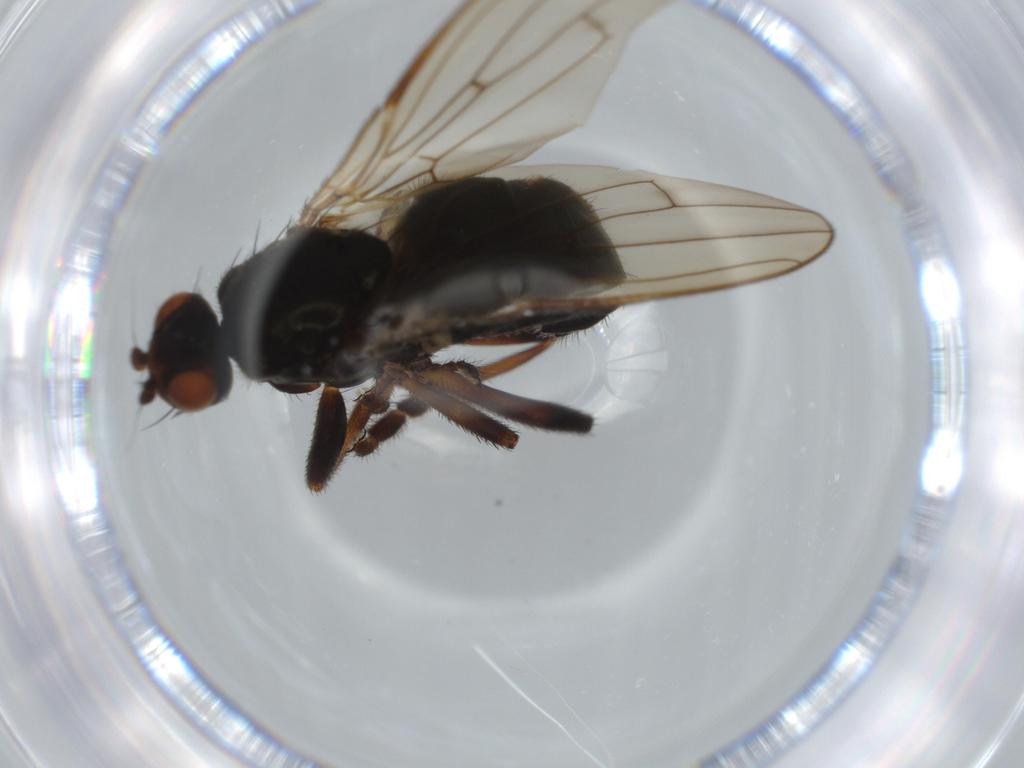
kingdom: Animalia
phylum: Arthropoda
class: Insecta
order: Diptera
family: Sphaeroceridae
